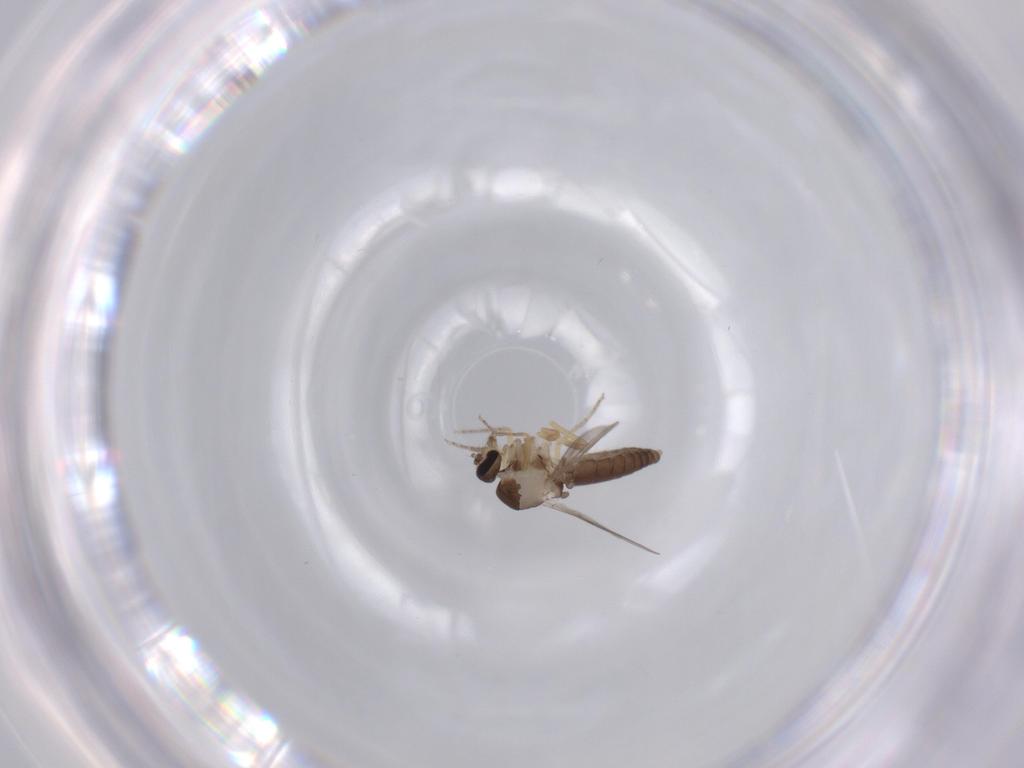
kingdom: Animalia
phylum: Arthropoda
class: Insecta
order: Diptera
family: Ceratopogonidae
